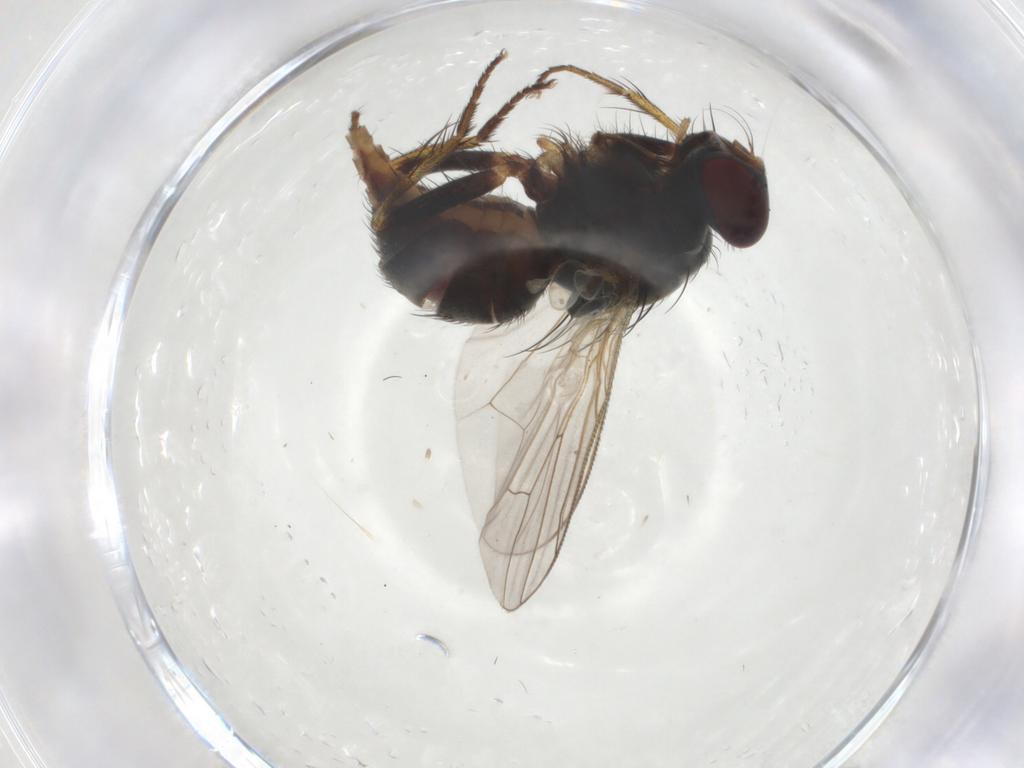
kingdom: Animalia
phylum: Arthropoda
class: Insecta
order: Diptera
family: Muscidae
